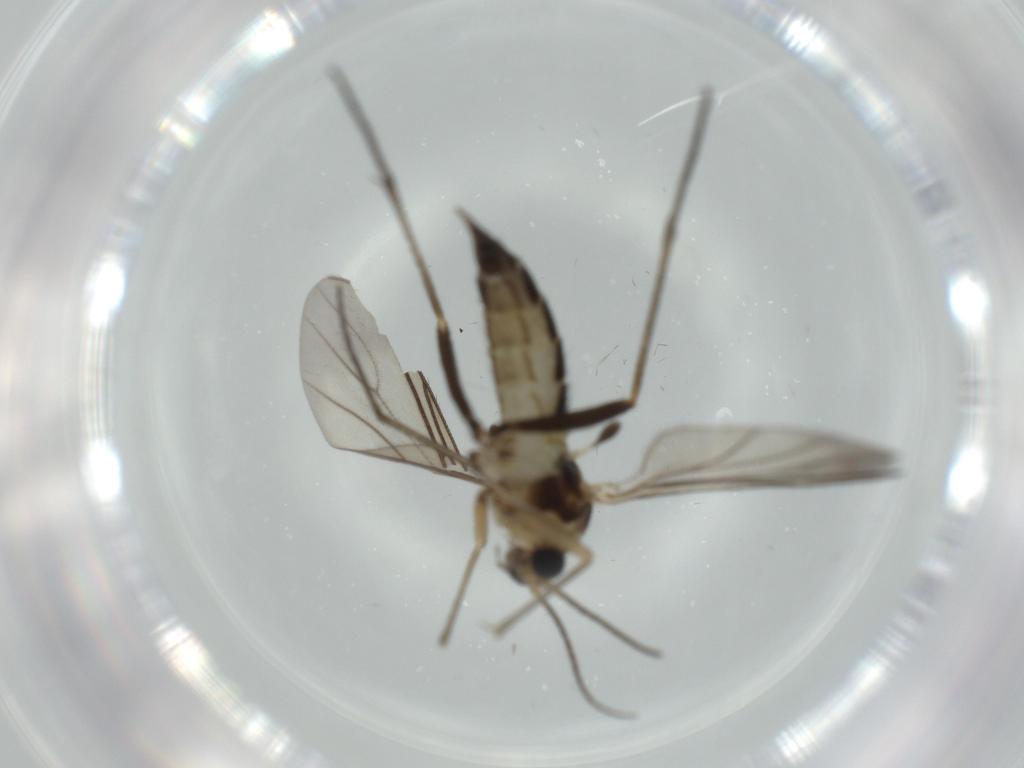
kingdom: Animalia
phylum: Arthropoda
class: Insecta
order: Diptera
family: Sciaridae
